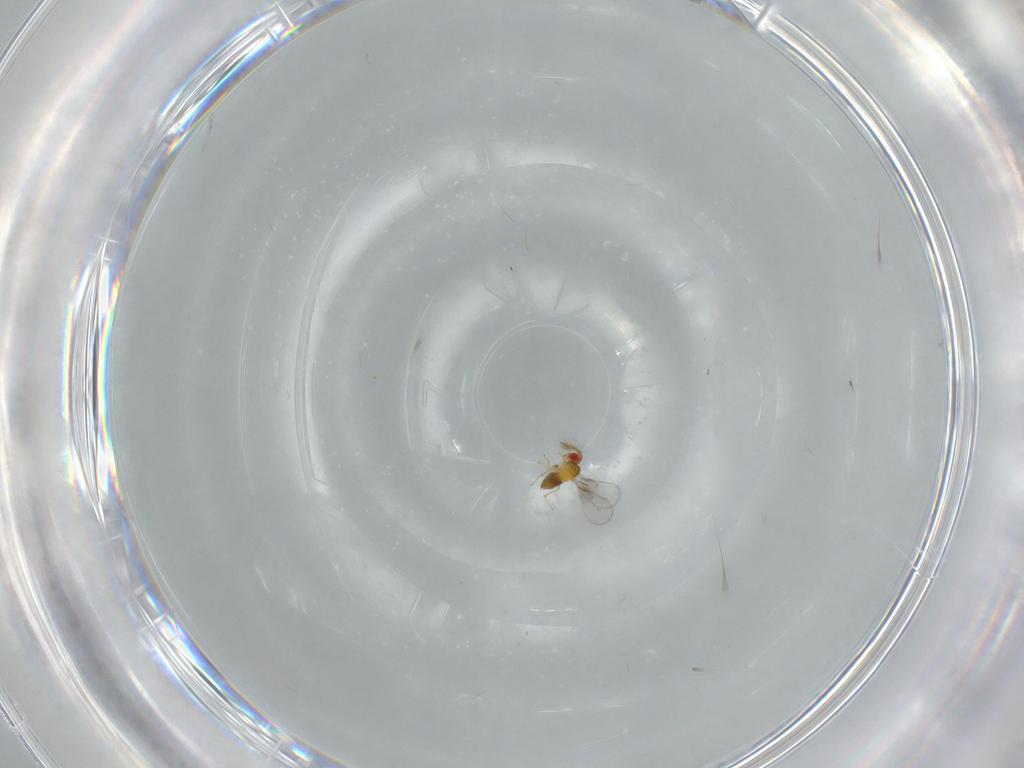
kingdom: Animalia
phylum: Arthropoda
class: Insecta
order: Hymenoptera
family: Trichogrammatidae
